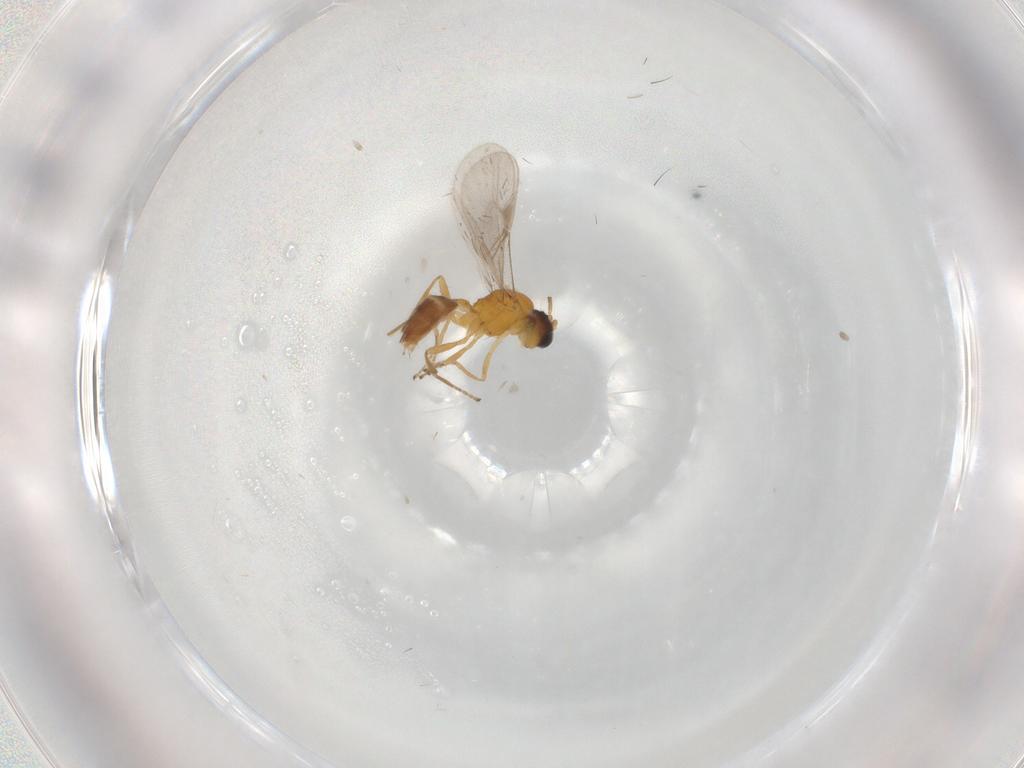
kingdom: Animalia
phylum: Arthropoda
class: Insecta
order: Hymenoptera
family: Braconidae
